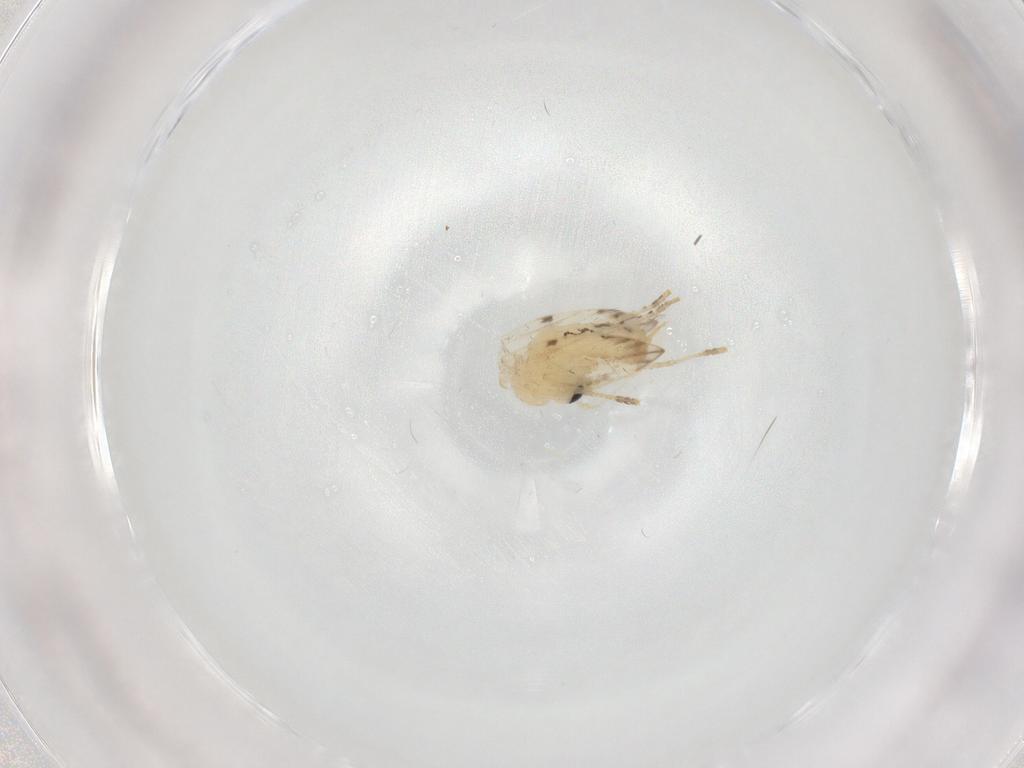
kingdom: Animalia
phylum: Arthropoda
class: Insecta
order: Diptera
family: Psychodidae
